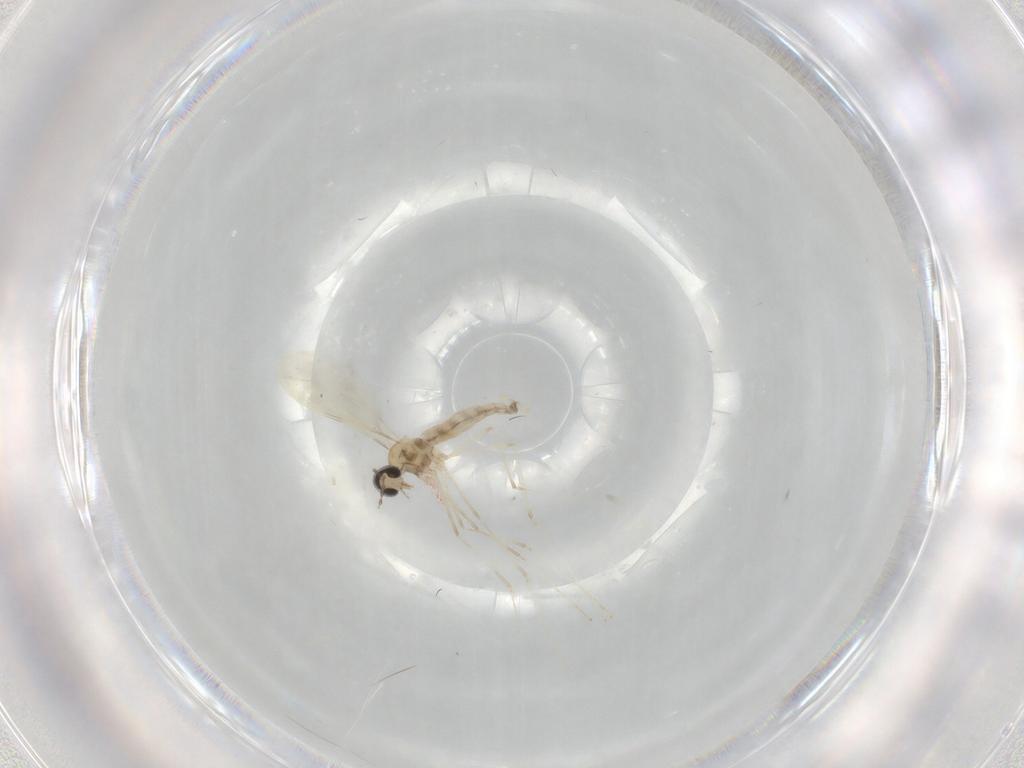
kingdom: Animalia
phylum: Arthropoda
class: Insecta
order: Diptera
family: Cecidomyiidae
